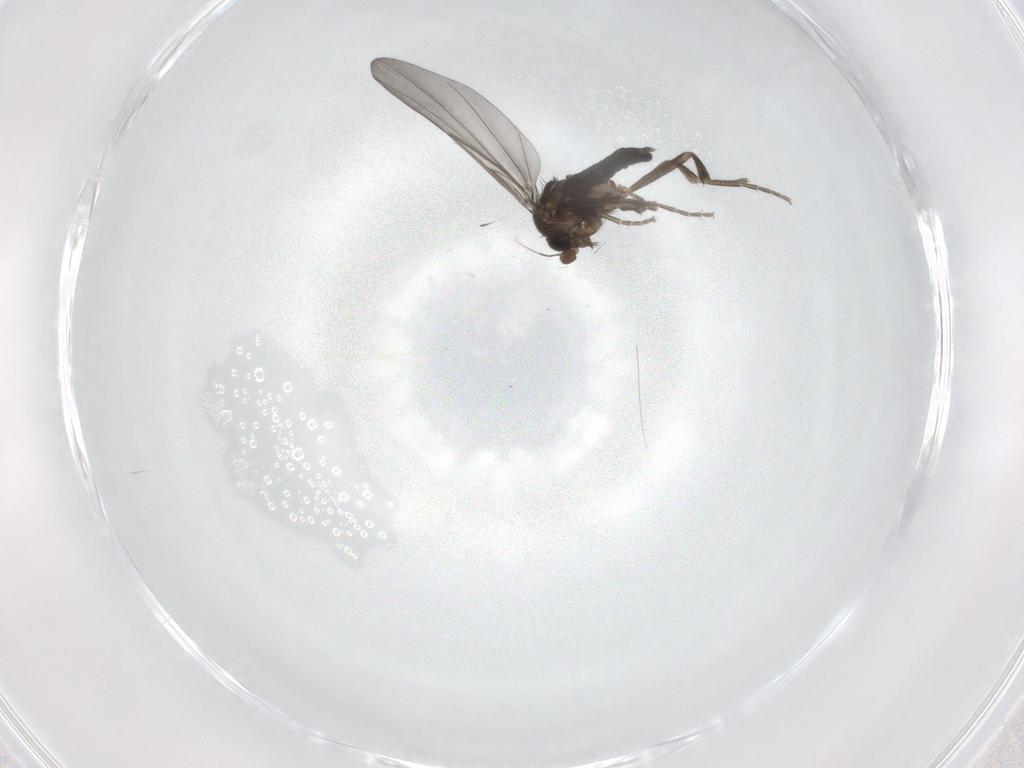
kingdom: Animalia
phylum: Arthropoda
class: Insecta
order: Diptera
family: Phoridae
